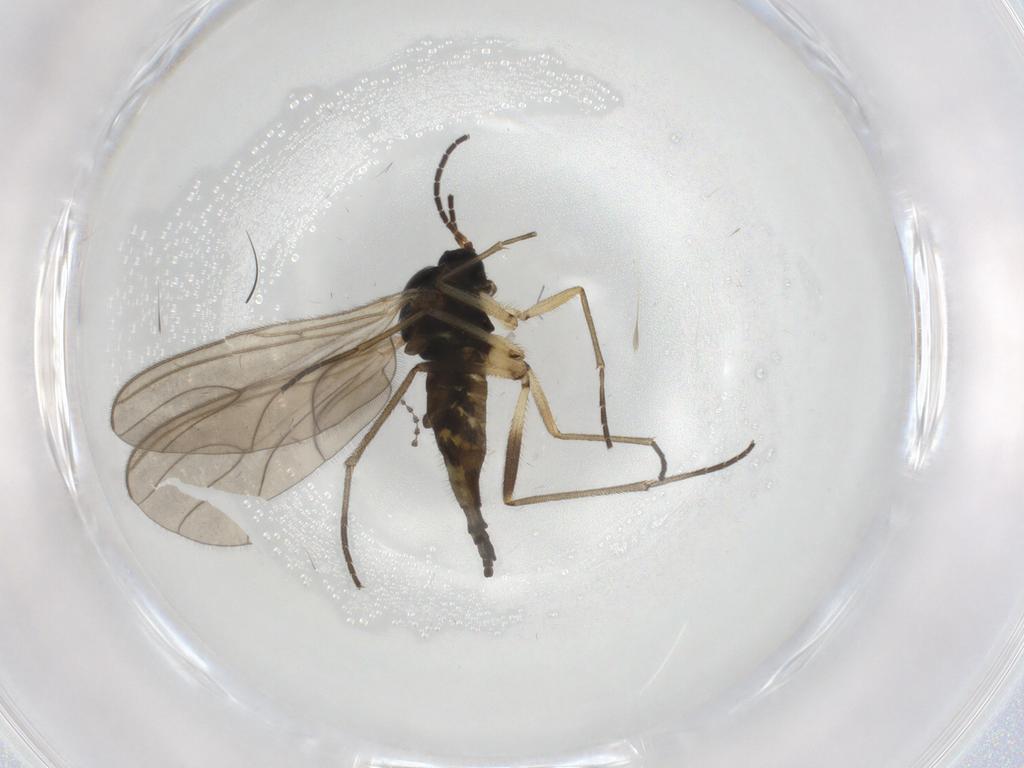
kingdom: Animalia
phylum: Arthropoda
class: Insecta
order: Diptera
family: Sciaridae
